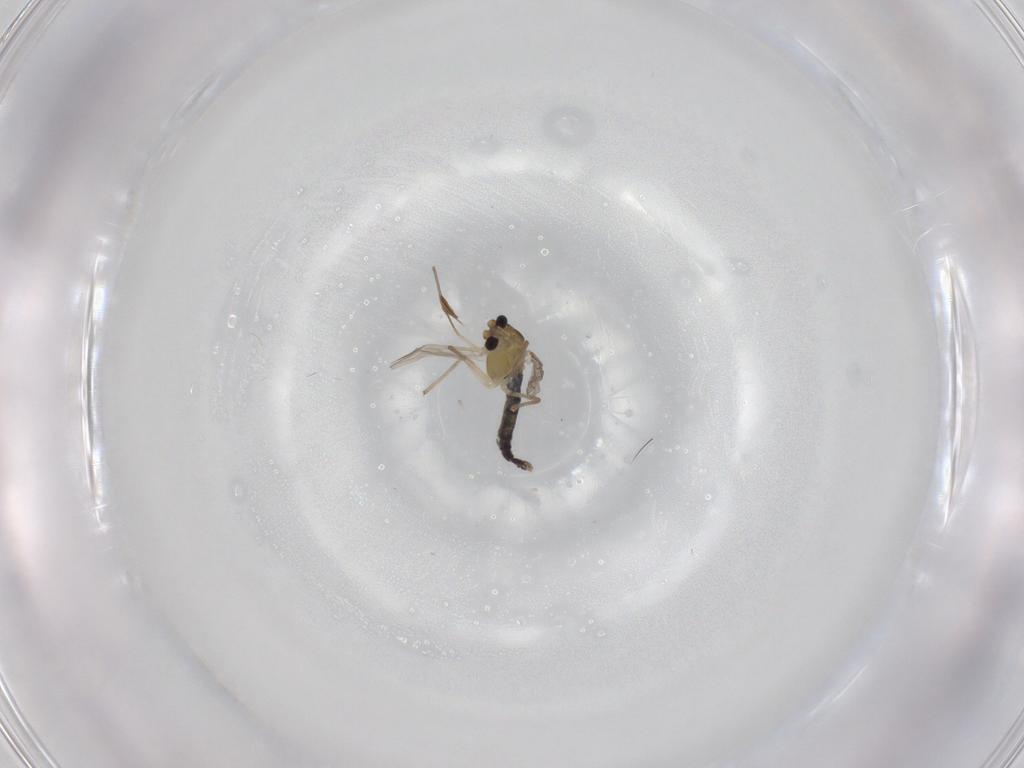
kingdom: Animalia
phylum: Arthropoda
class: Insecta
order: Diptera
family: Chironomidae
